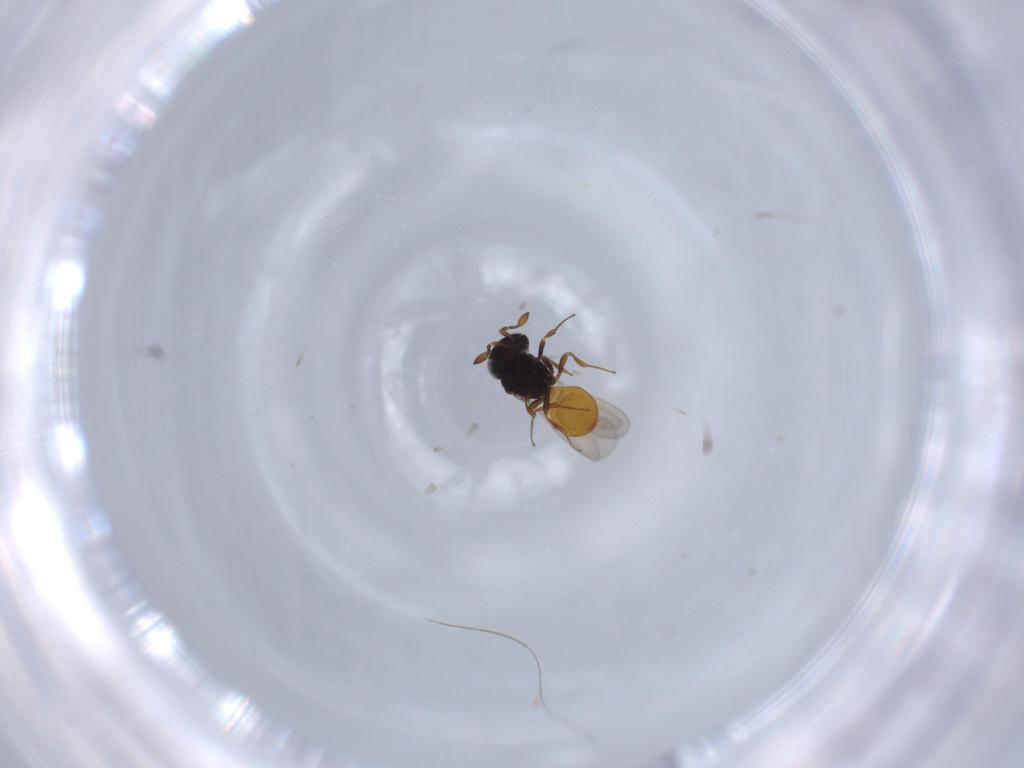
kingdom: Animalia
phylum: Arthropoda
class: Insecta
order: Hymenoptera
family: Scelionidae
